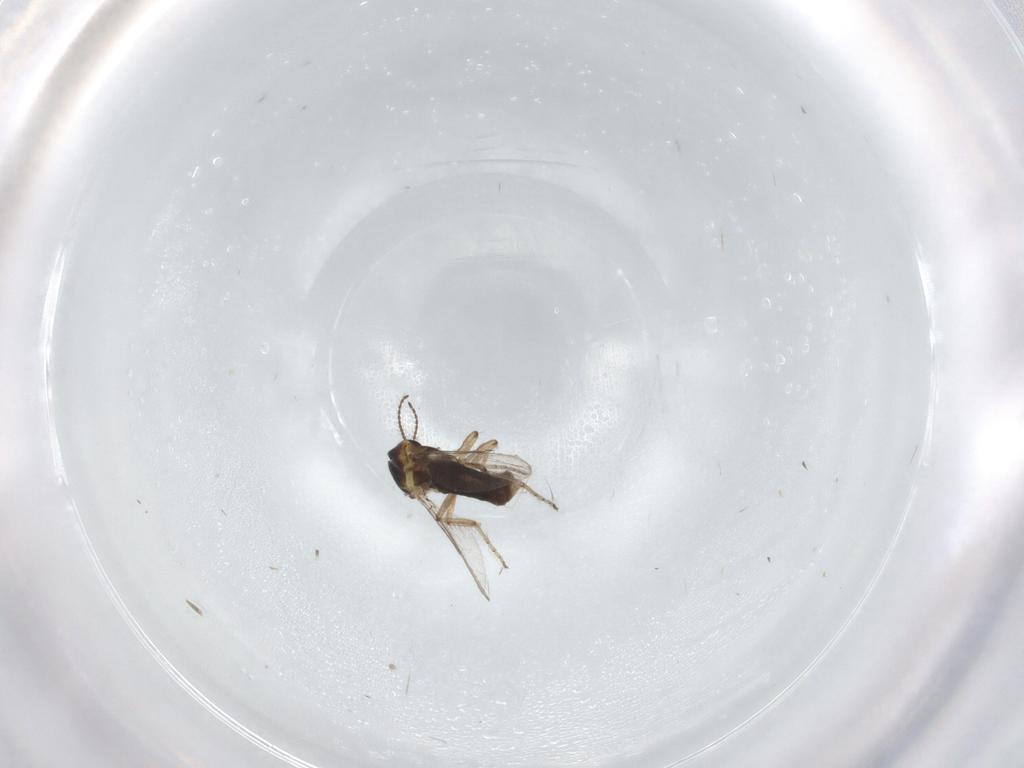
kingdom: Animalia
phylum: Arthropoda
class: Insecta
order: Diptera
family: Ceratopogonidae
